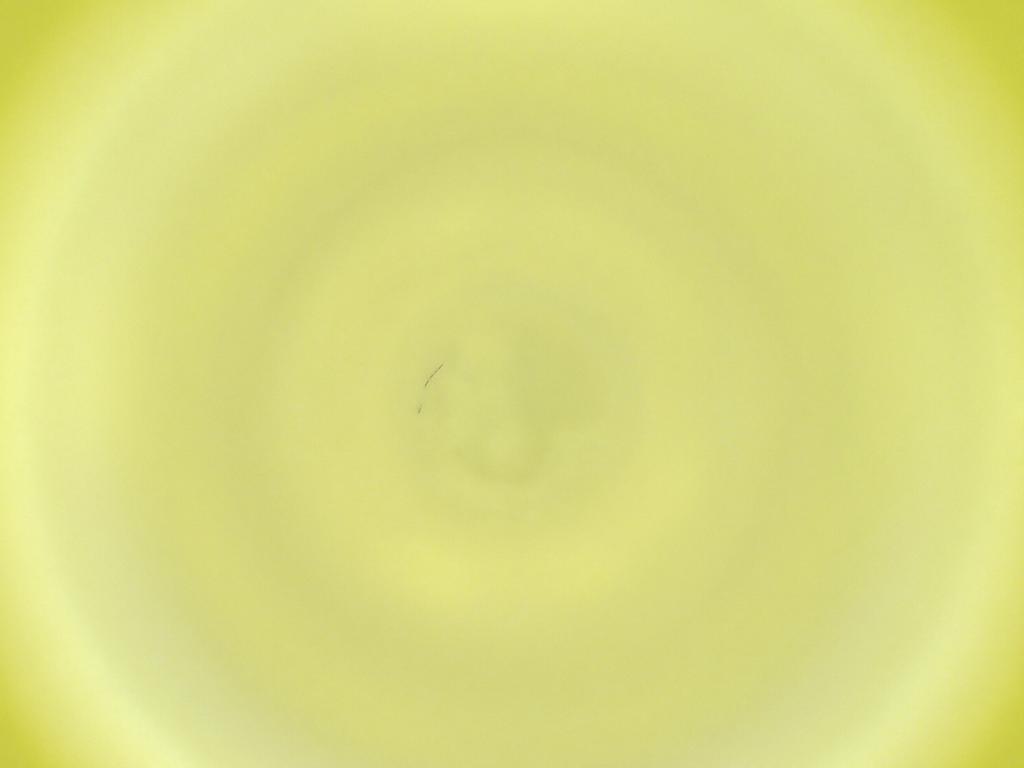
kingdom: Animalia
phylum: Arthropoda
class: Insecta
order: Diptera
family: Cecidomyiidae
